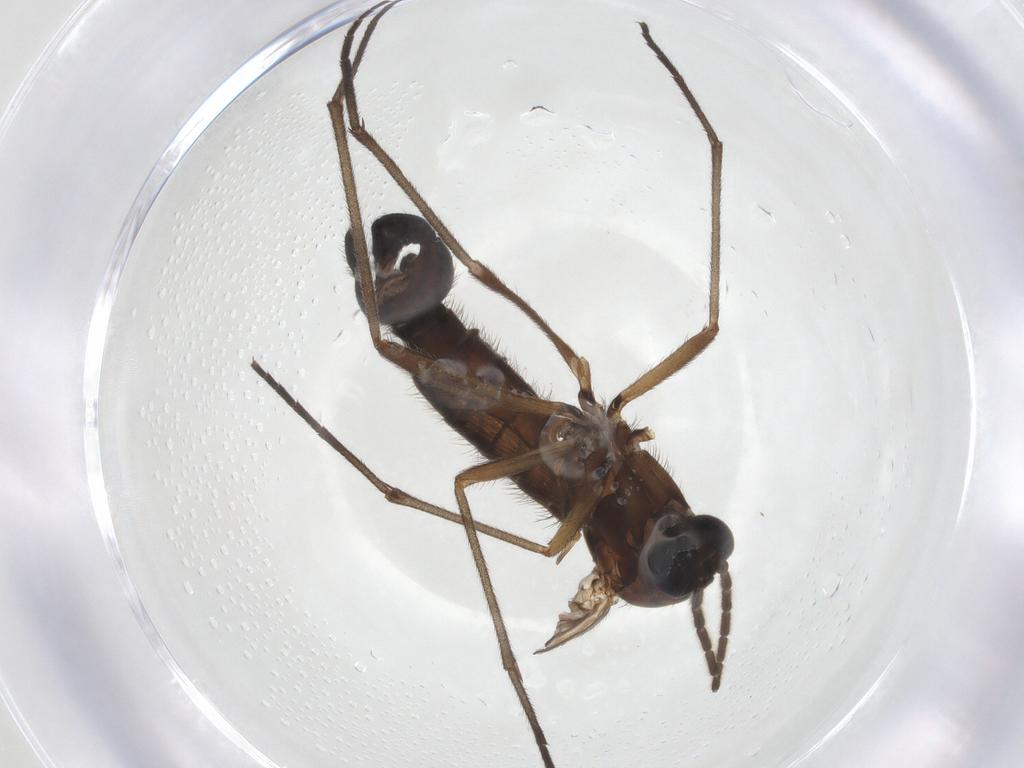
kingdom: Animalia
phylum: Arthropoda
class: Insecta
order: Diptera
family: Sciaridae
